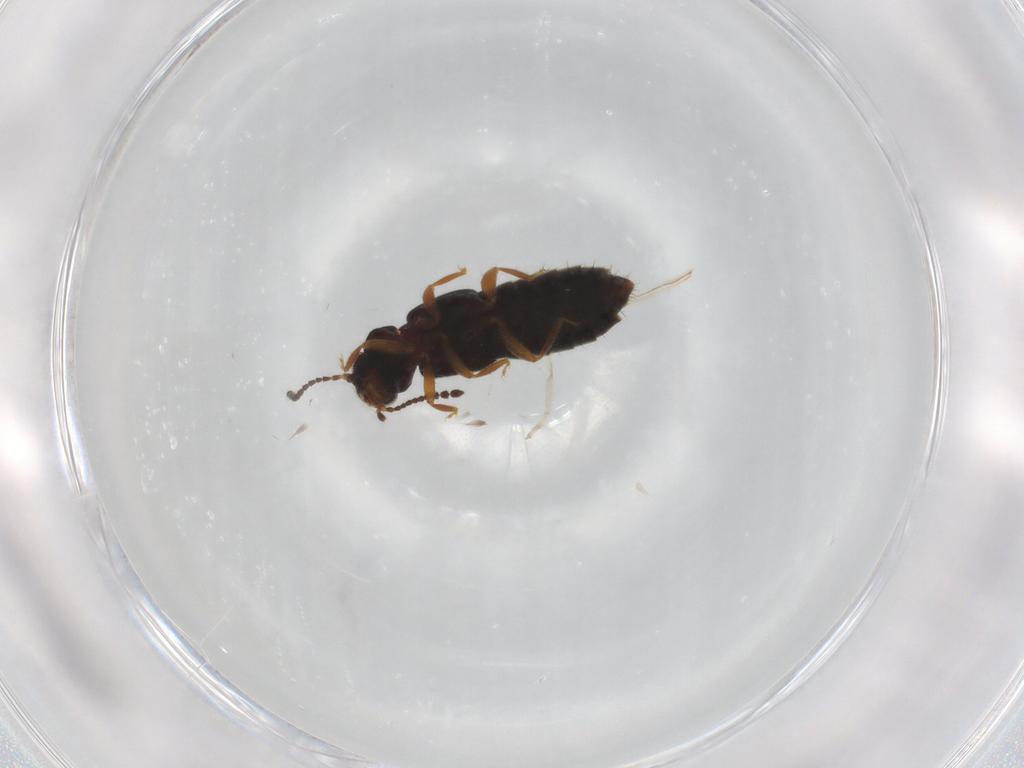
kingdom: Animalia
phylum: Arthropoda
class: Insecta
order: Coleoptera
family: Staphylinidae
